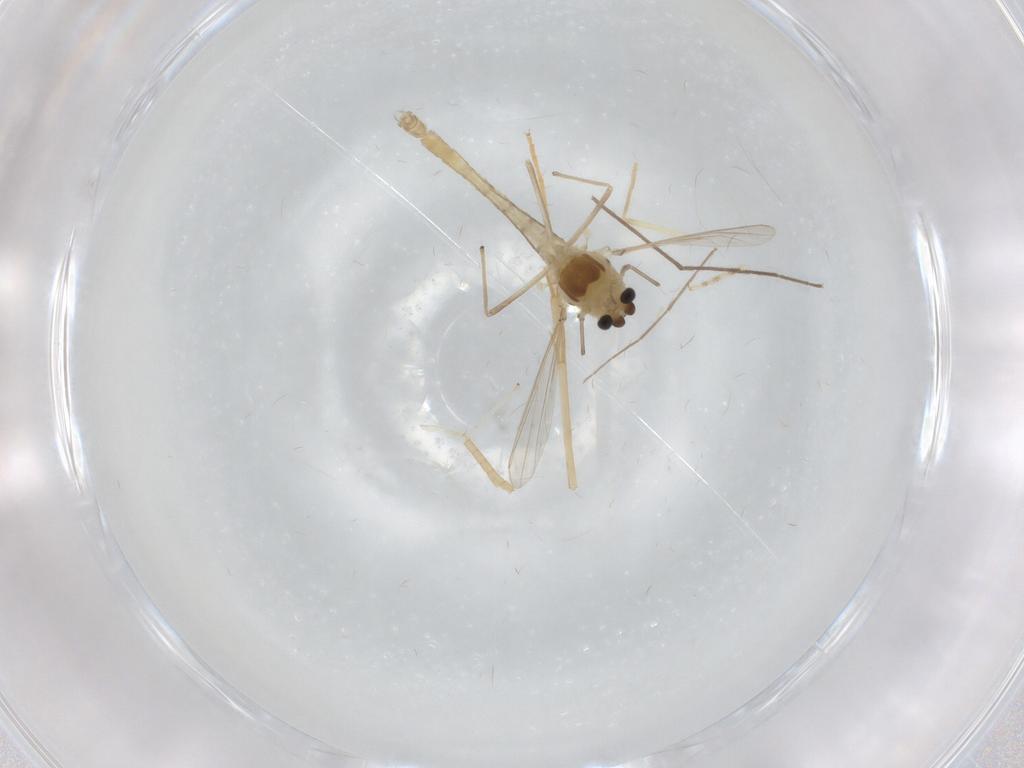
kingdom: Animalia
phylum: Arthropoda
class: Insecta
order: Diptera
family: Chironomidae
